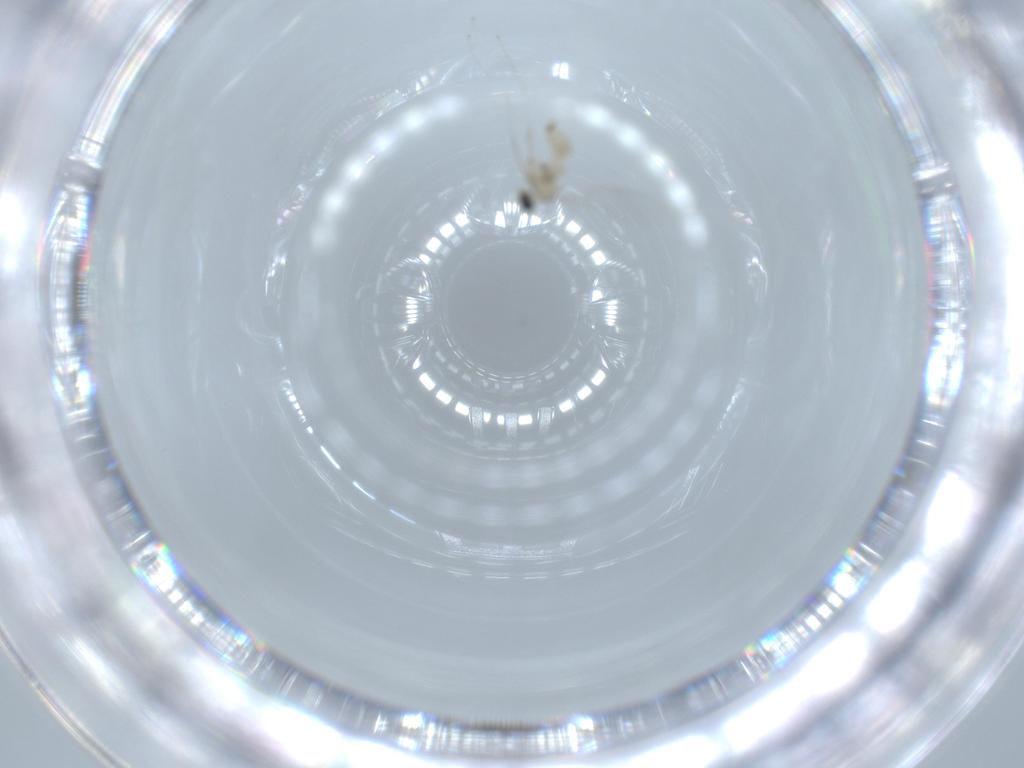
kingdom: Animalia
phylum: Arthropoda
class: Insecta
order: Diptera
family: Cecidomyiidae
